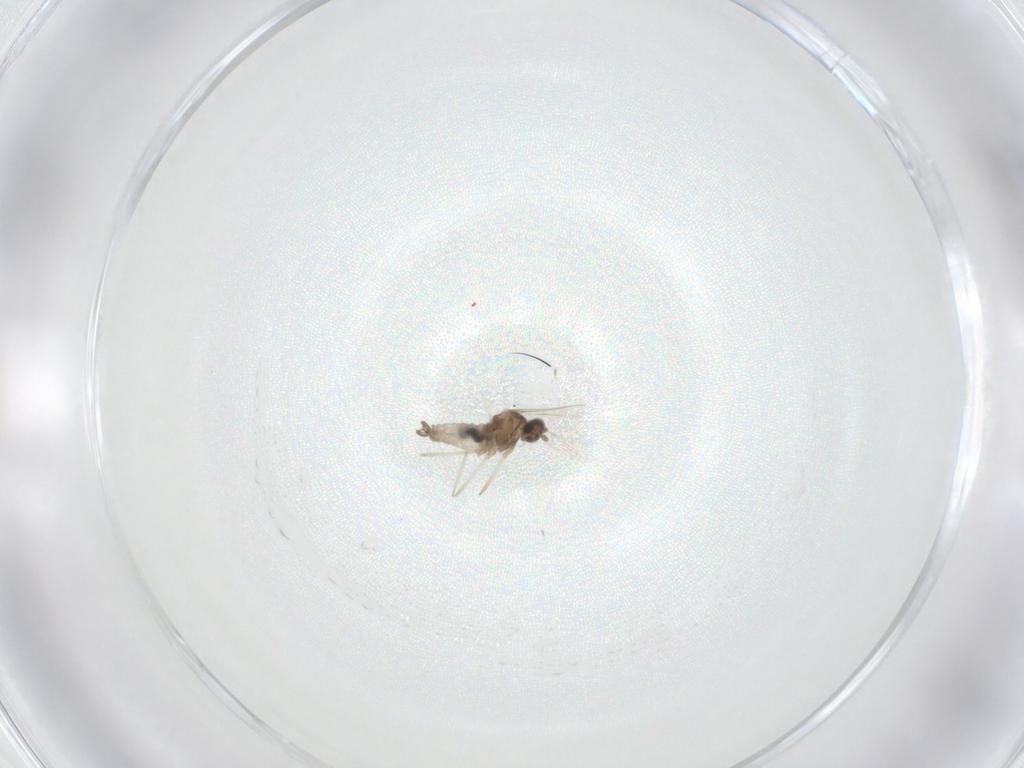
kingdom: Animalia
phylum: Arthropoda
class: Insecta
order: Diptera
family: Cecidomyiidae
